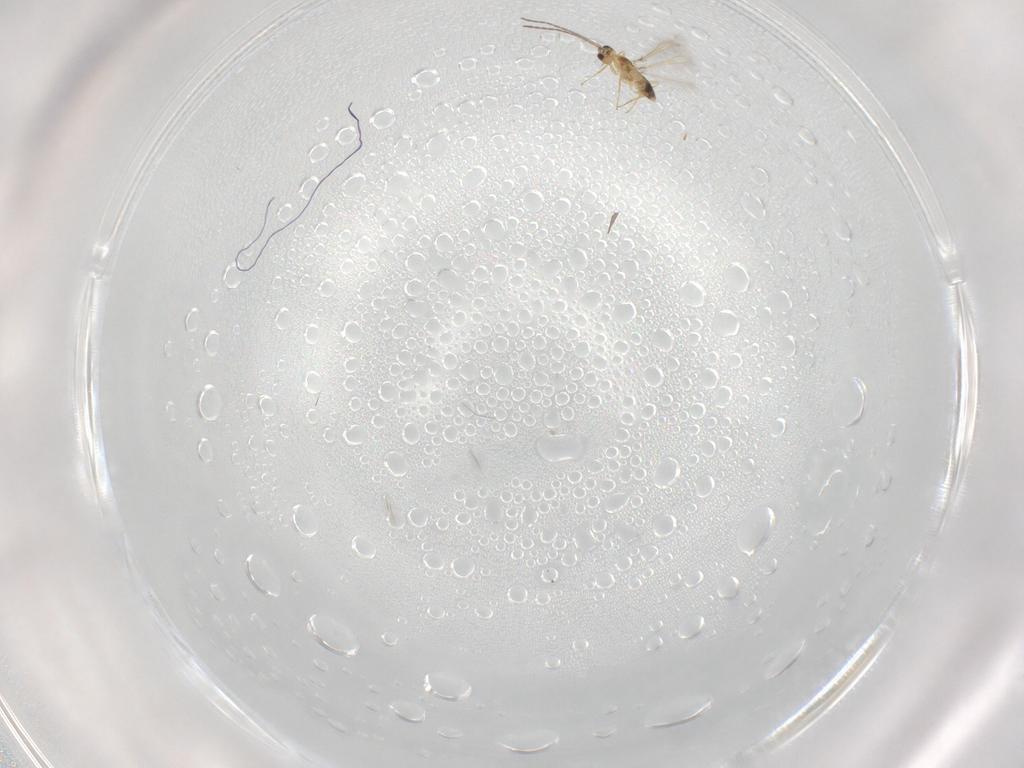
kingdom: Animalia
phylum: Arthropoda
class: Insecta
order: Hymenoptera
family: Mymaridae
